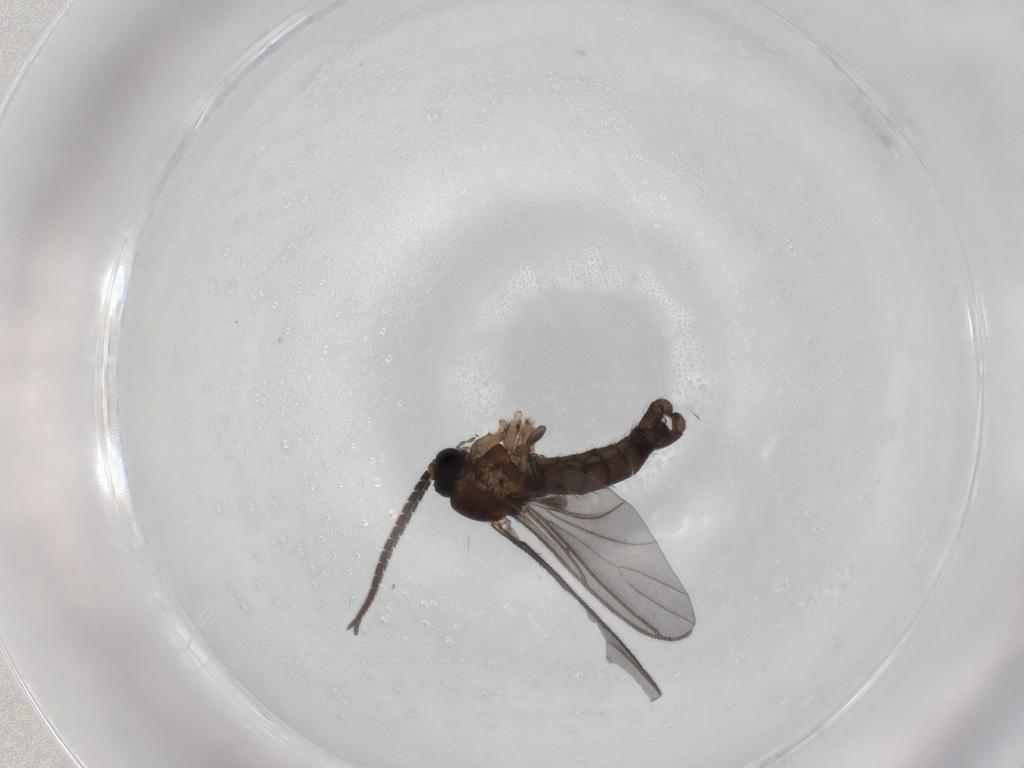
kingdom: Animalia
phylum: Arthropoda
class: Insecta
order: Diptera
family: Sciaridae
